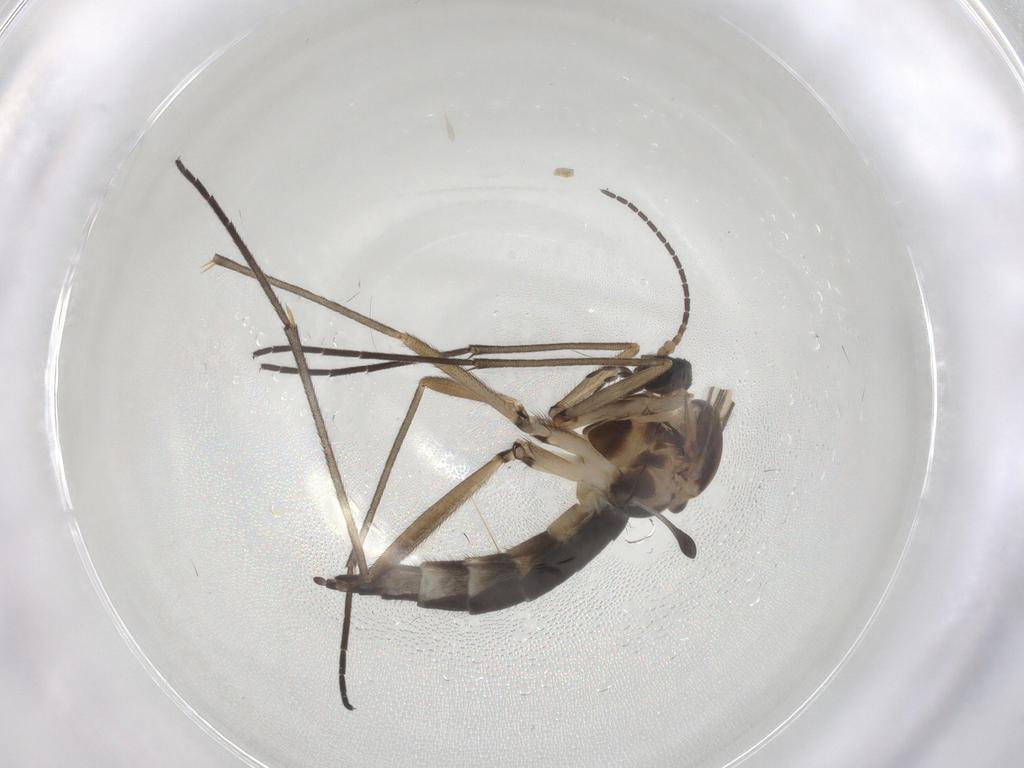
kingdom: Animalia
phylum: Arthropoda
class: Insecta
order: Diptera
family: Sciaridae
